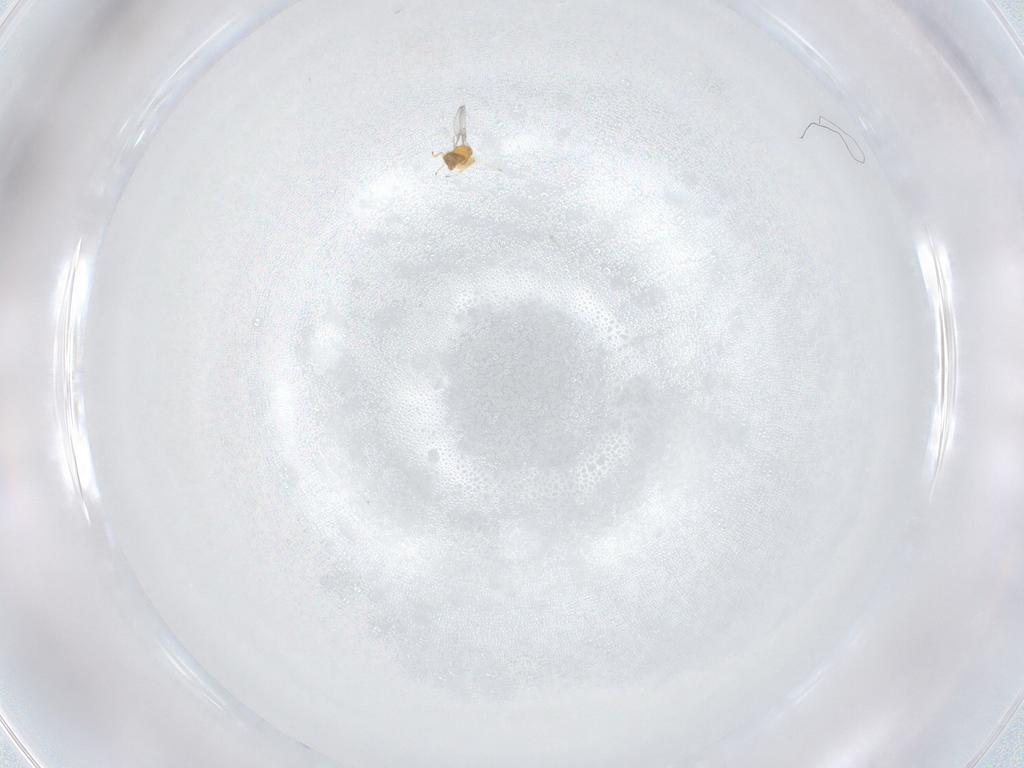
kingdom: Animalia
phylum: Arthropoda
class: Insecta
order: Hymenoptera
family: Trichogrammatidae
